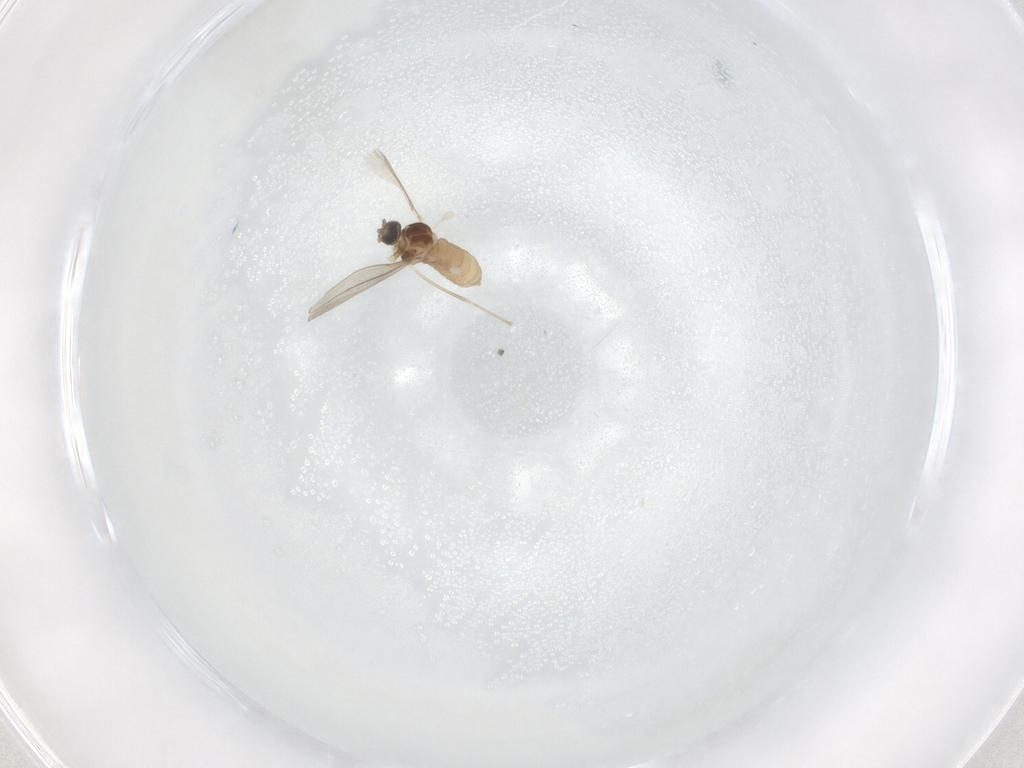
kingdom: Animalia
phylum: Arthropoda
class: Insecta
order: Diptera
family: Cecidomyiidae
